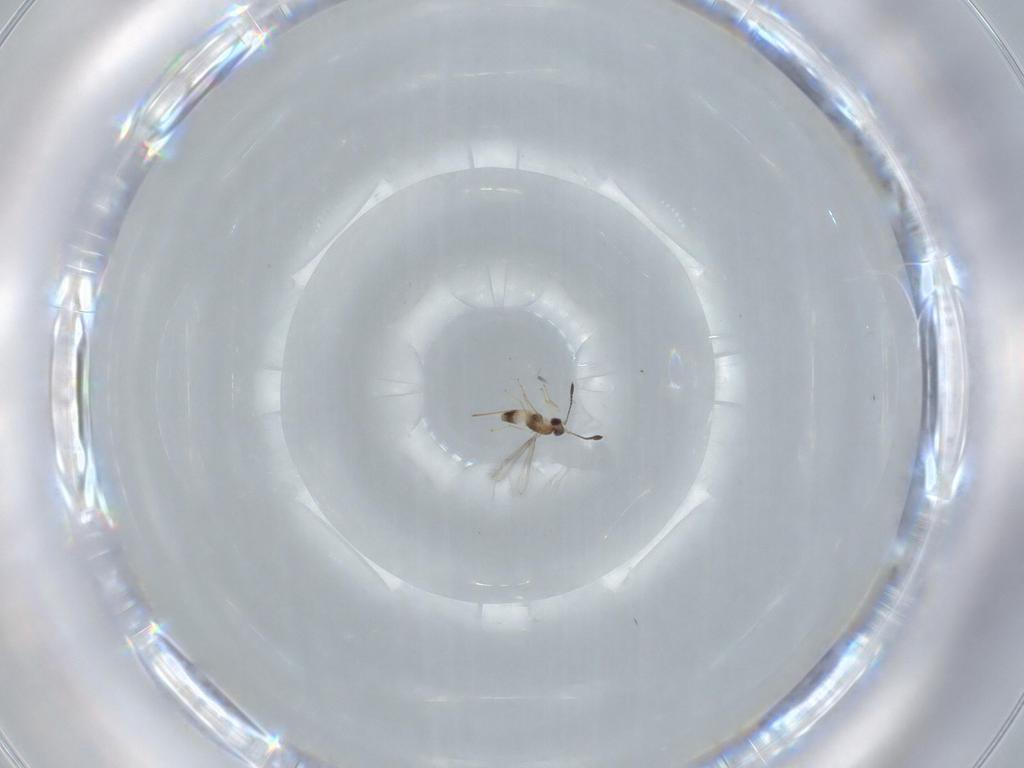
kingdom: Animalia
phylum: Arthropoda
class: Insecta
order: Hymenoptera
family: Mymaridae
